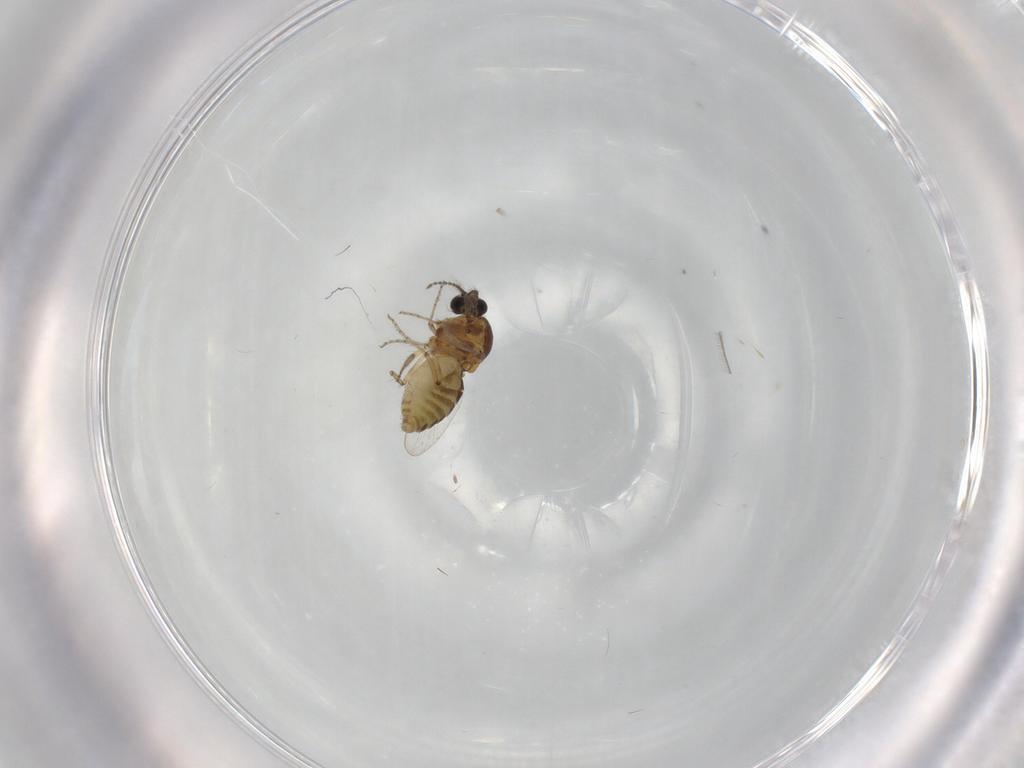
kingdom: Animalia
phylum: Arthropoda
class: Insecta
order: Diptera
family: Ceratopogonidae
